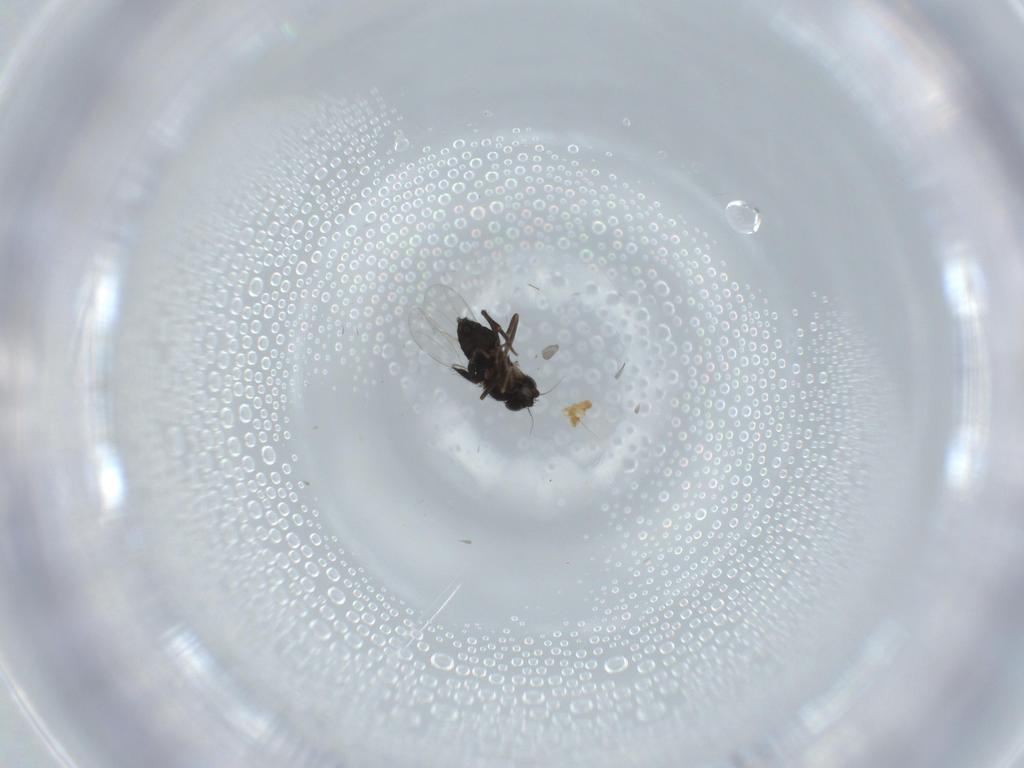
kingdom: Animalia
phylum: Arthropoda
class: Insecta
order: Diptera
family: Phoridae
